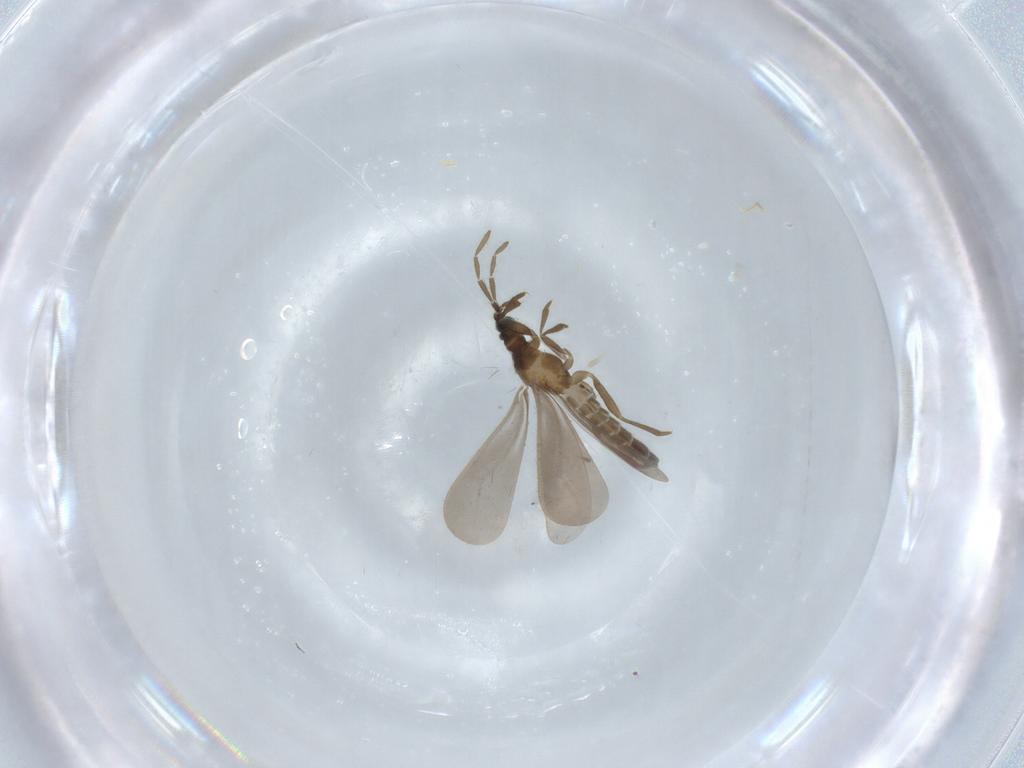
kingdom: Animalia
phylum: Arthropoda
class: Insecta
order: Hemiptera
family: Enicocephalidae
